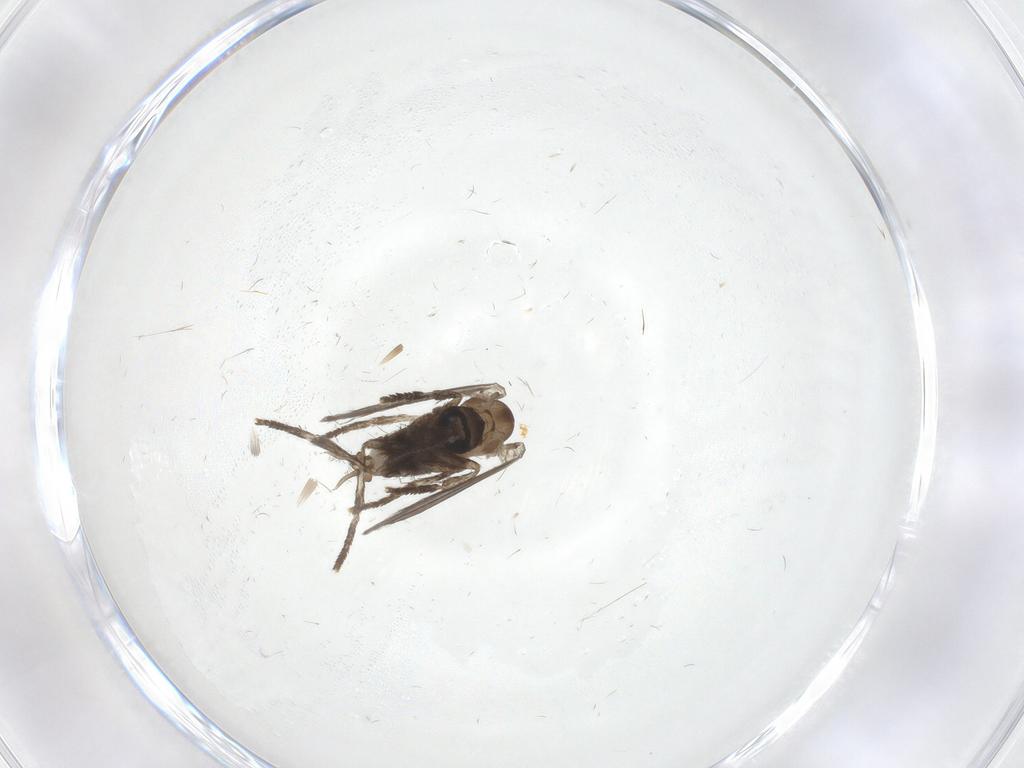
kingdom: Animalia
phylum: Arthropoda
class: Insecta
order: Diptera
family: Psychodidae
